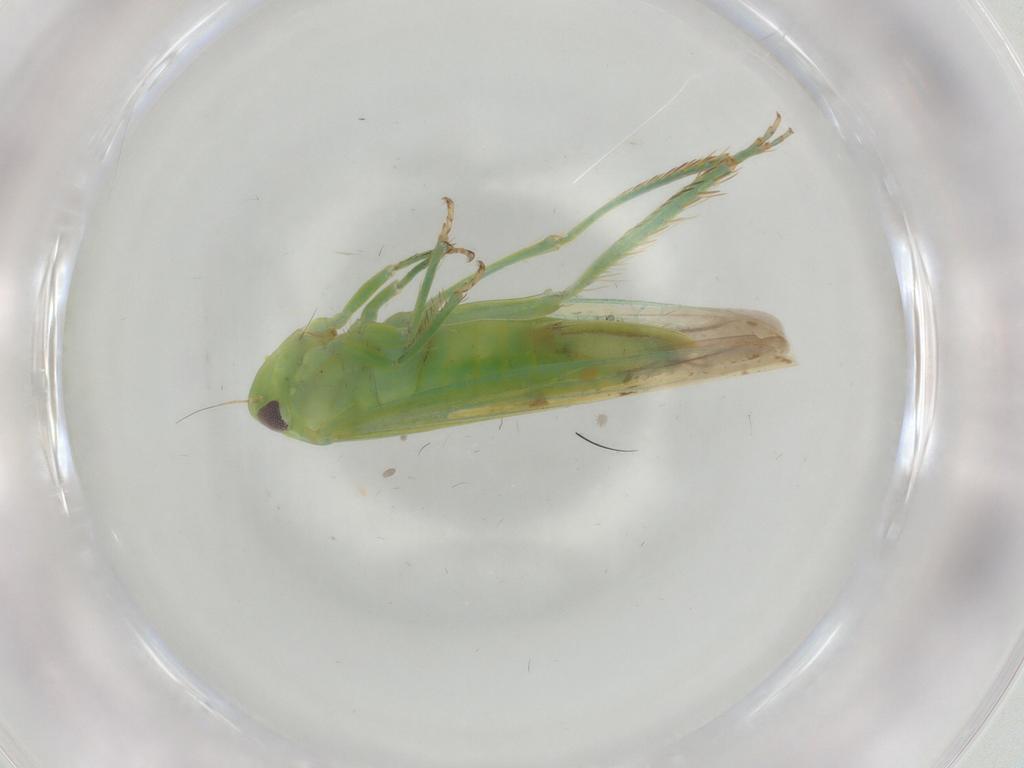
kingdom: Animalia
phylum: Arthropoda
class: Insecta
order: Hemiptera
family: Cicadellidae
